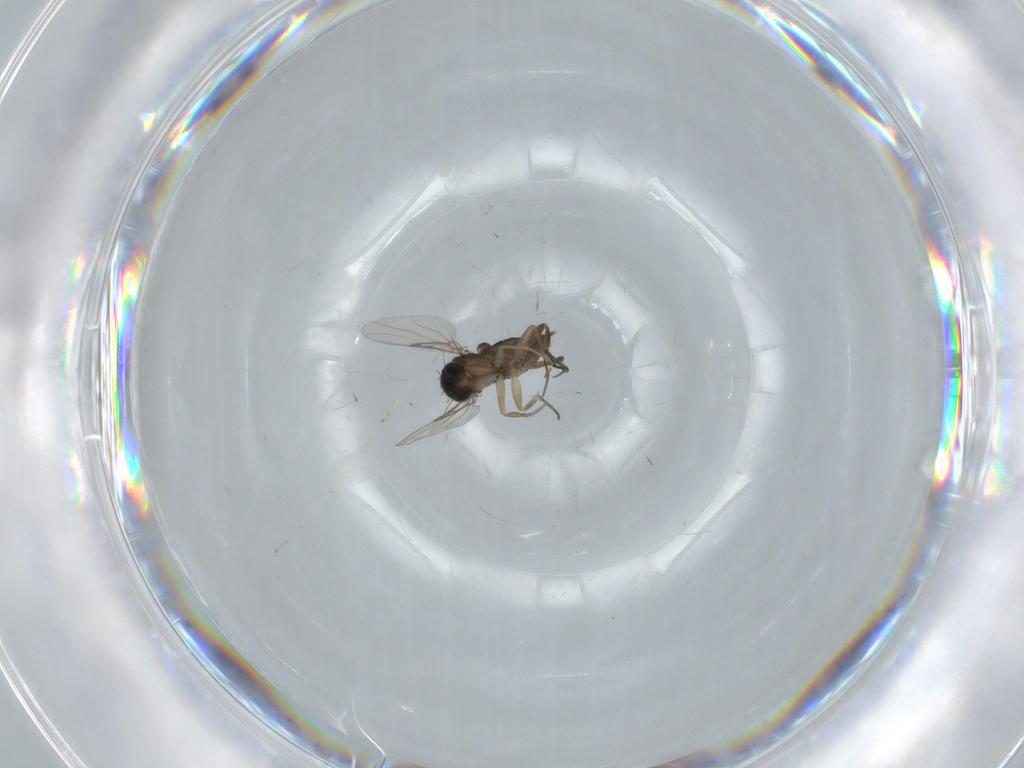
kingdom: Animalia
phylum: Arthropoda
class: Insecta
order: Diptera
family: Phoridae
